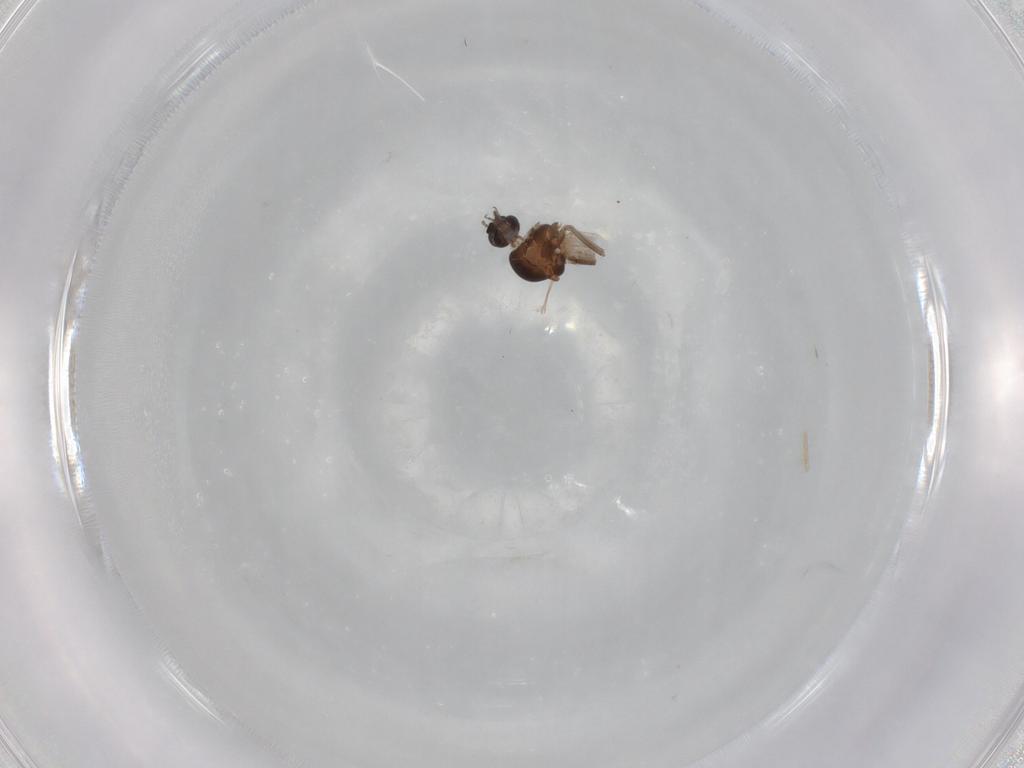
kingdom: Animalia
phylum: Arthropoda
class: Insecta
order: Diptera
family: Ceratopogonidae
